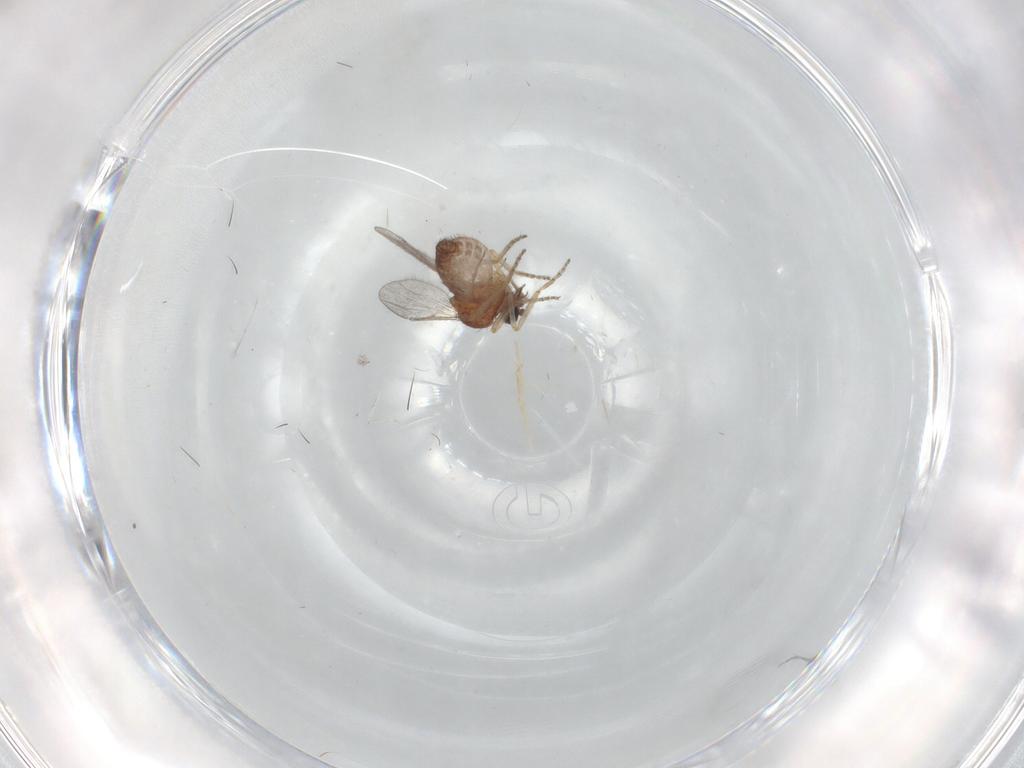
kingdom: Animalia
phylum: Arthropoda
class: Insecta
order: Diptera
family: Ceratopogonidae
